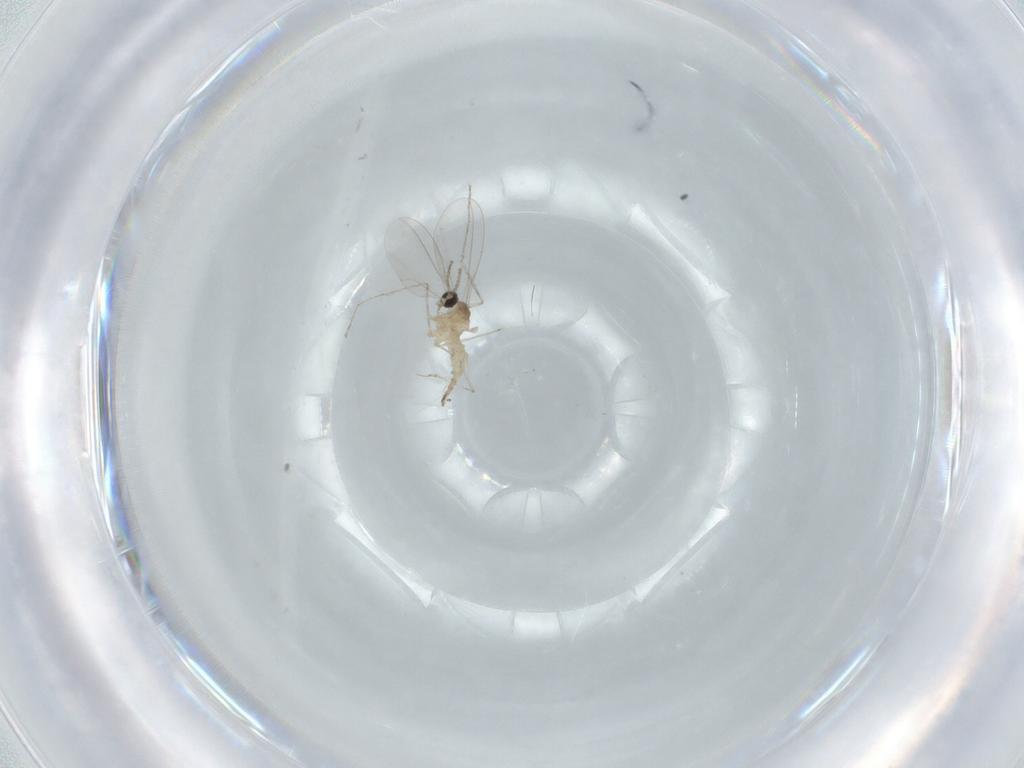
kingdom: Animalia
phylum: Arthropoda
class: Insecta
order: Diptera
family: Cecidomyiidae
